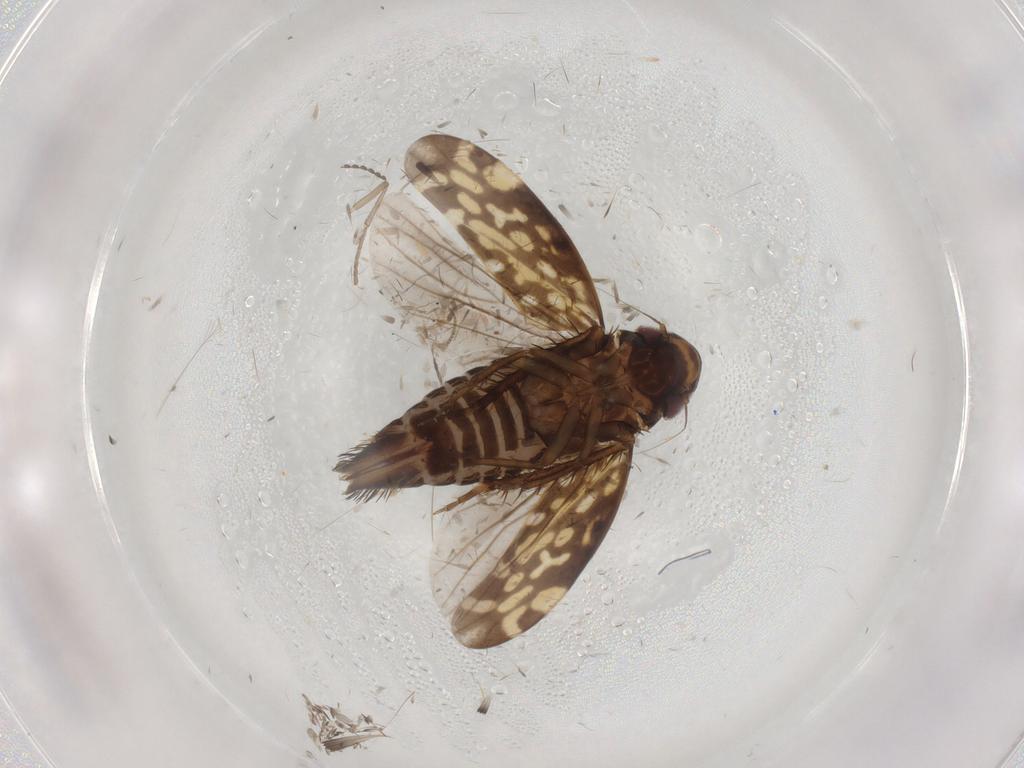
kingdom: Animalia
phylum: Arthropoda
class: Insecta
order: Hemiptera
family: Cicadellidae
